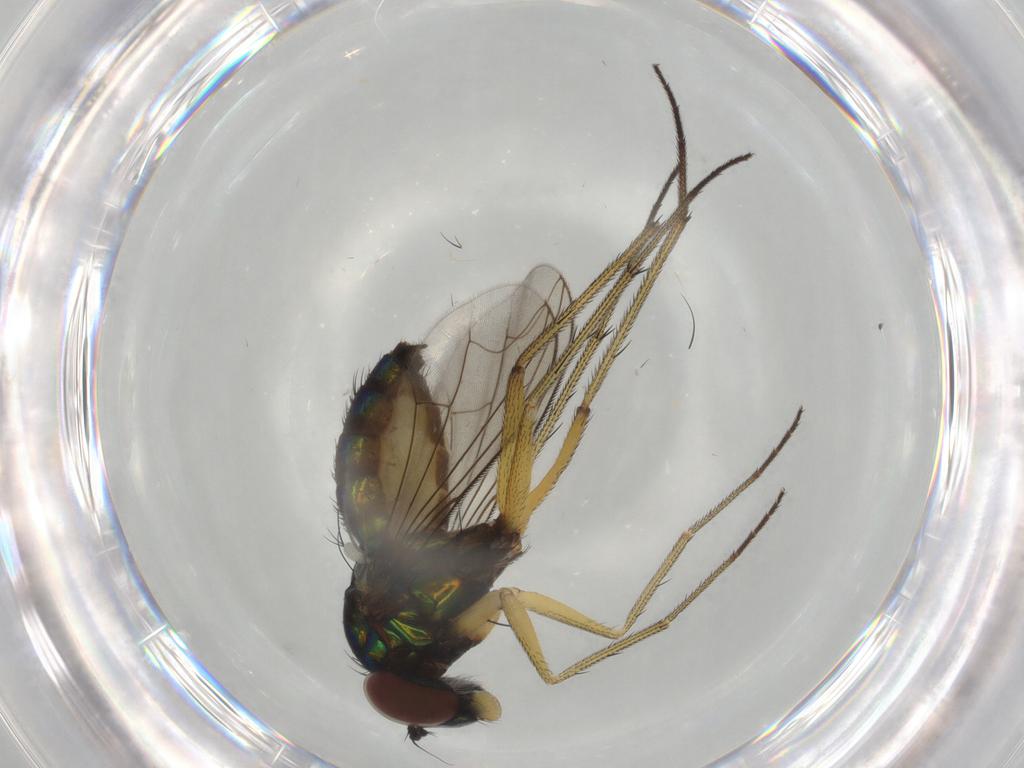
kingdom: Animalia
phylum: Arthropoda
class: Insecta
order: Diptera
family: Dolichopodidae
